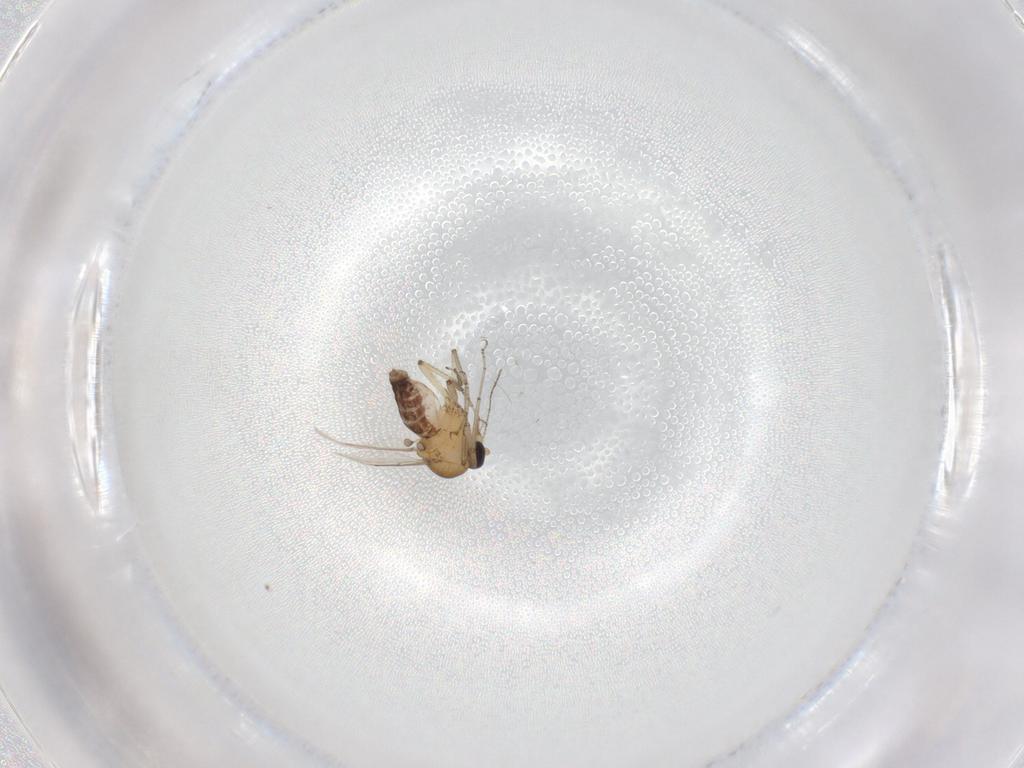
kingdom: Animalia
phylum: Arthropoda
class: Insecta
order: Diptera
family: Ceratopogonidae
